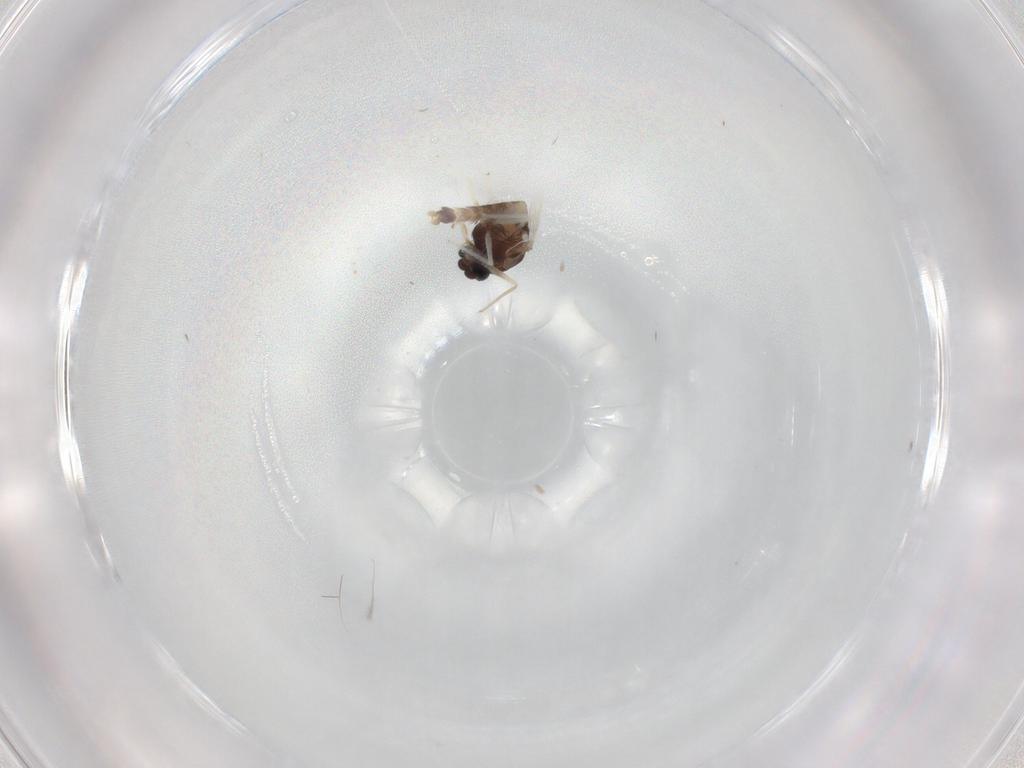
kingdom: Animalia
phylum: Arthropoda
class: Insecta
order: Diptera
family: Chironomidae
